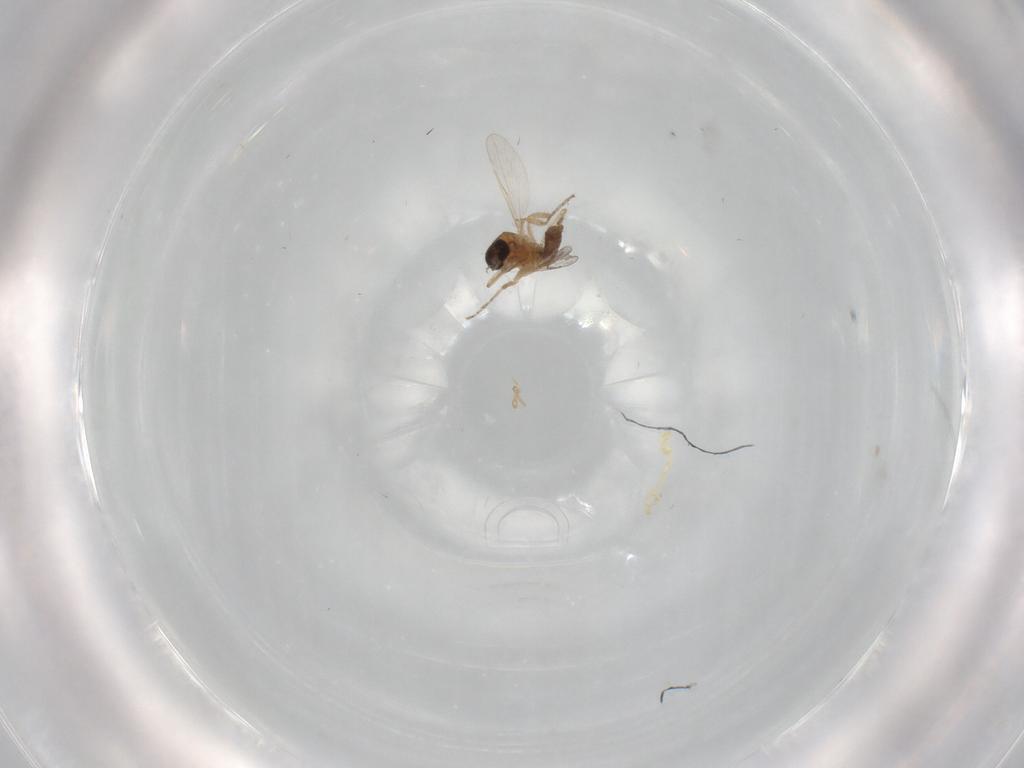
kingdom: Animalia
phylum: Arthropoda
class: Insecta
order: Diptera
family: Ceratopogonidae
